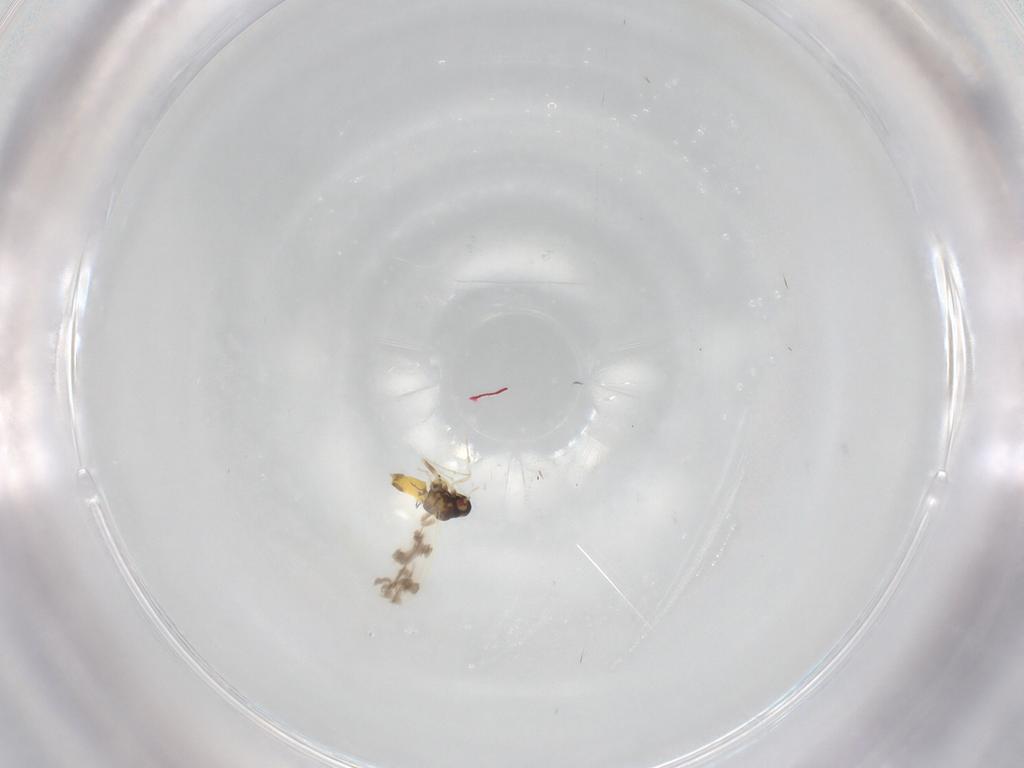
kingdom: Animalia
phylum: Arthropoda
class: Insecta
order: Hemiptera
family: Aleyrodidae
